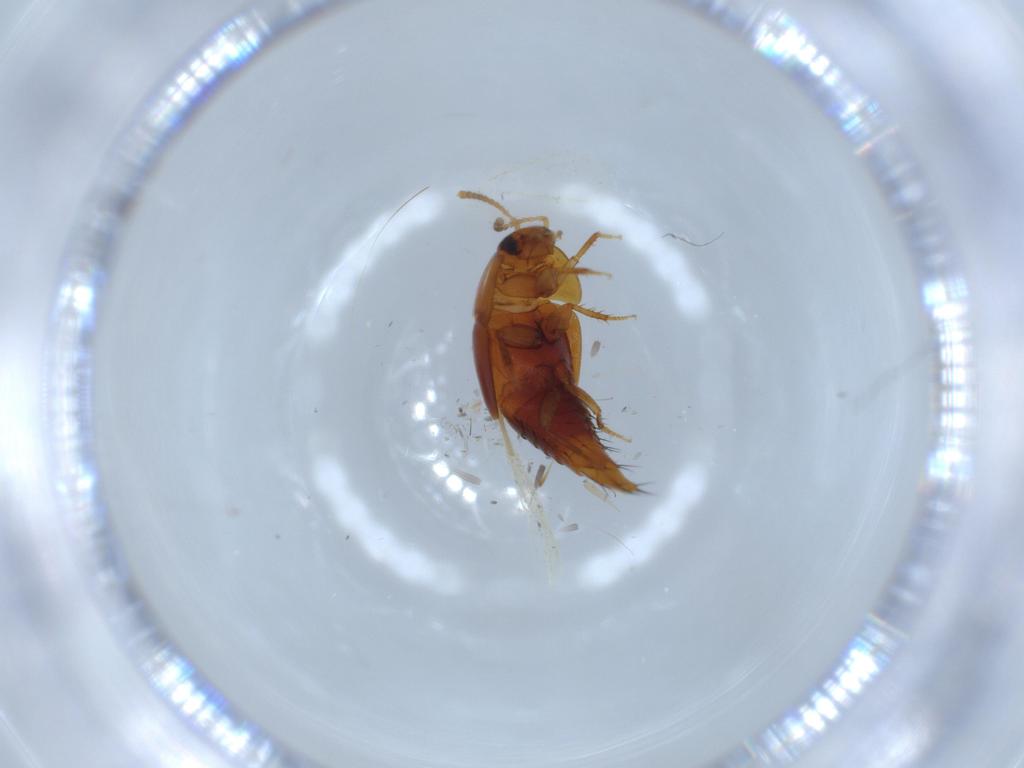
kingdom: Animalia
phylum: Arthropoda
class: Insecta
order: Coleoptera
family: Staphylinidae
